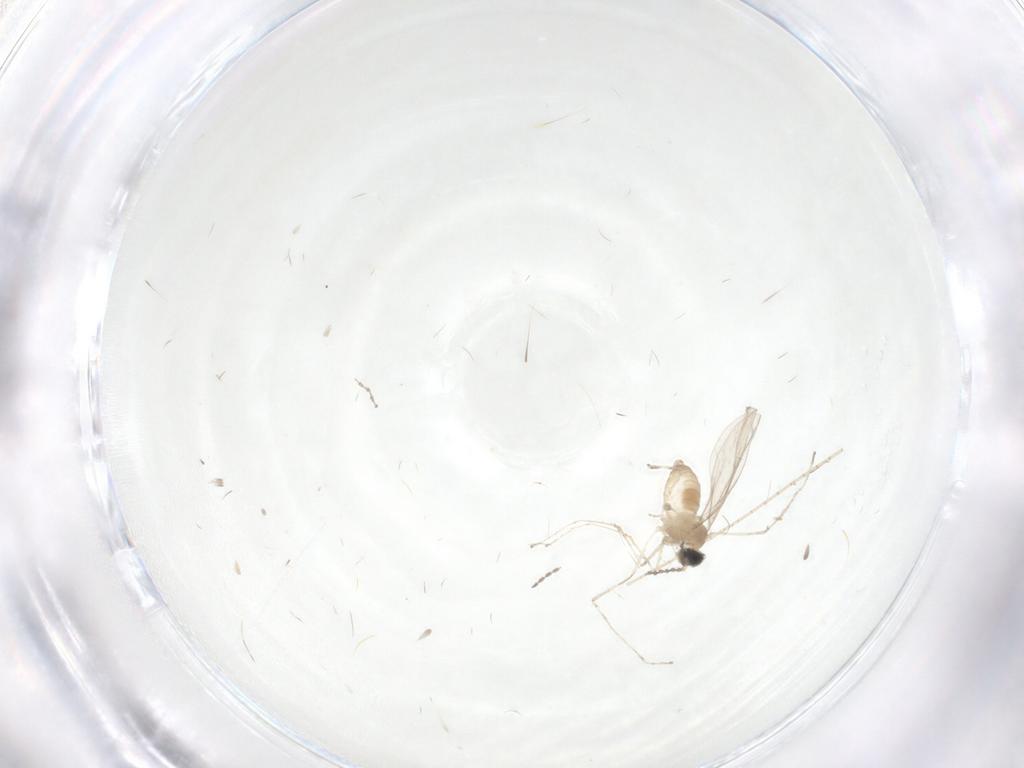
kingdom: Animalia
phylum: Arthropoda
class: Insecta
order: Diptera
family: Cecidomyiidae
